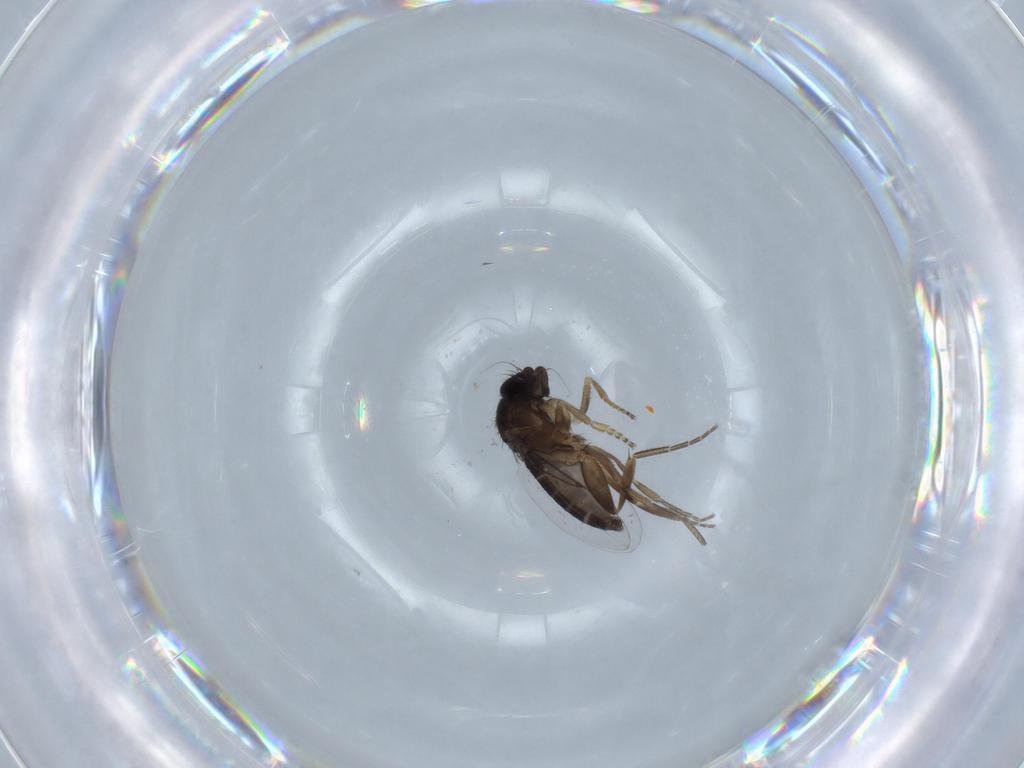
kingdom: Animalia
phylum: Arthropoda
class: Insecta
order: Diptera
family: Phoridae
